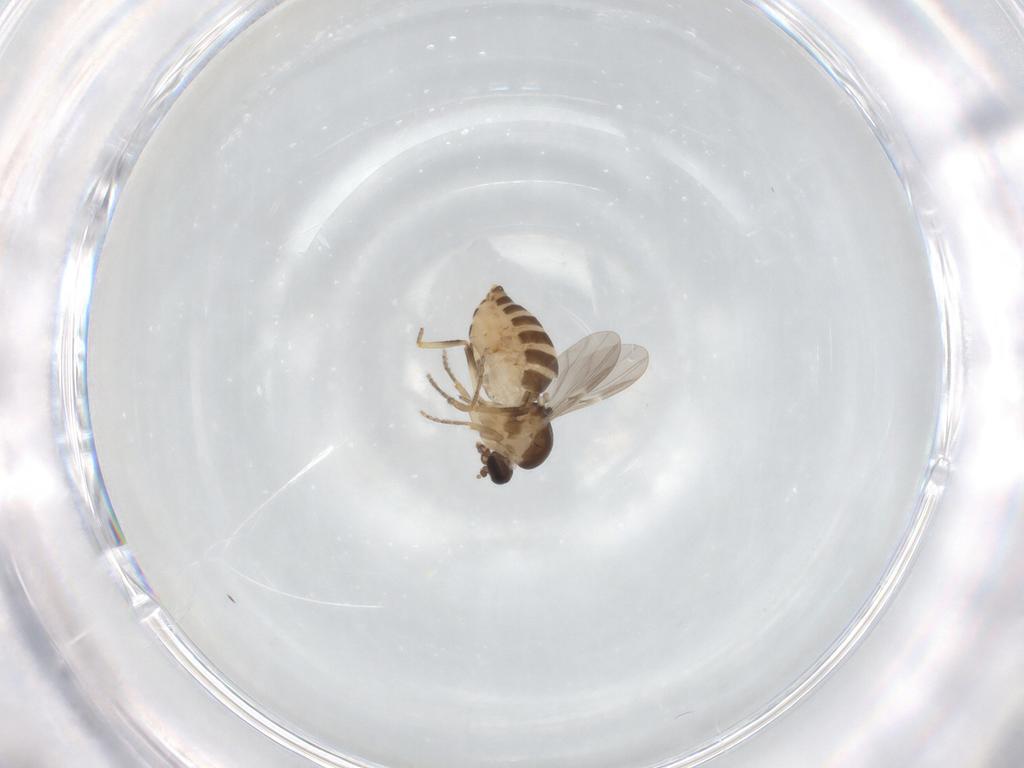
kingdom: Animalia
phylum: Arthropoda
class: Insecta
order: Diptera
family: Ceratopogonidae
